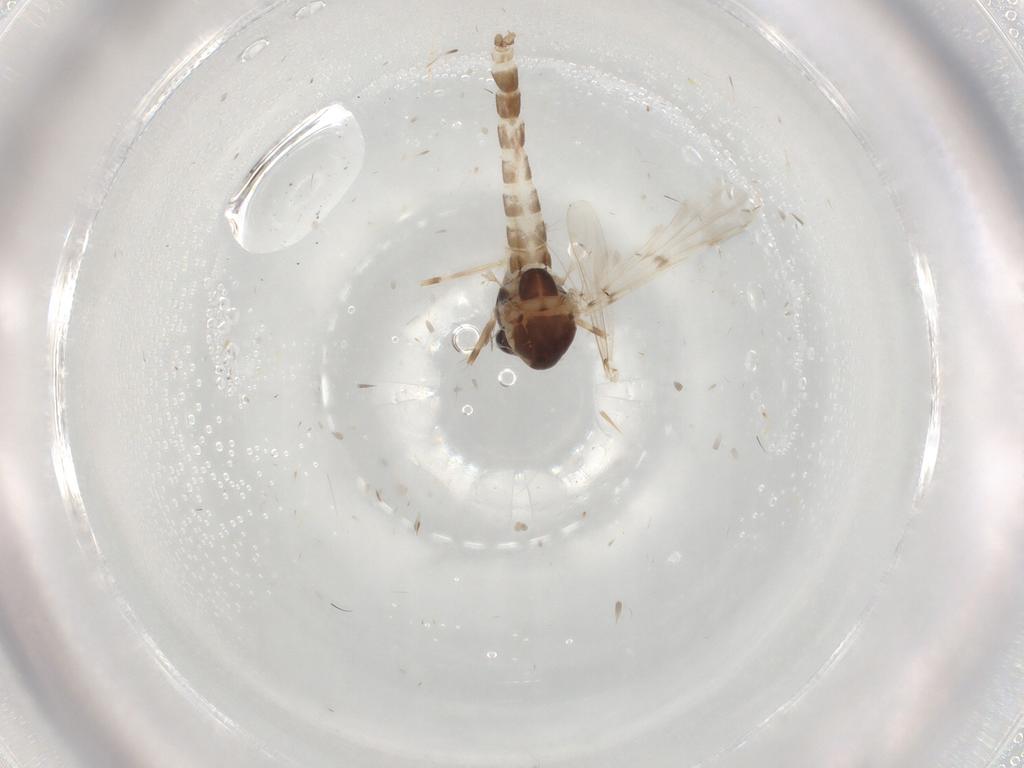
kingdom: Animalia
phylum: Arthropoda
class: Insecta
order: Diptera
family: Chironomidae
